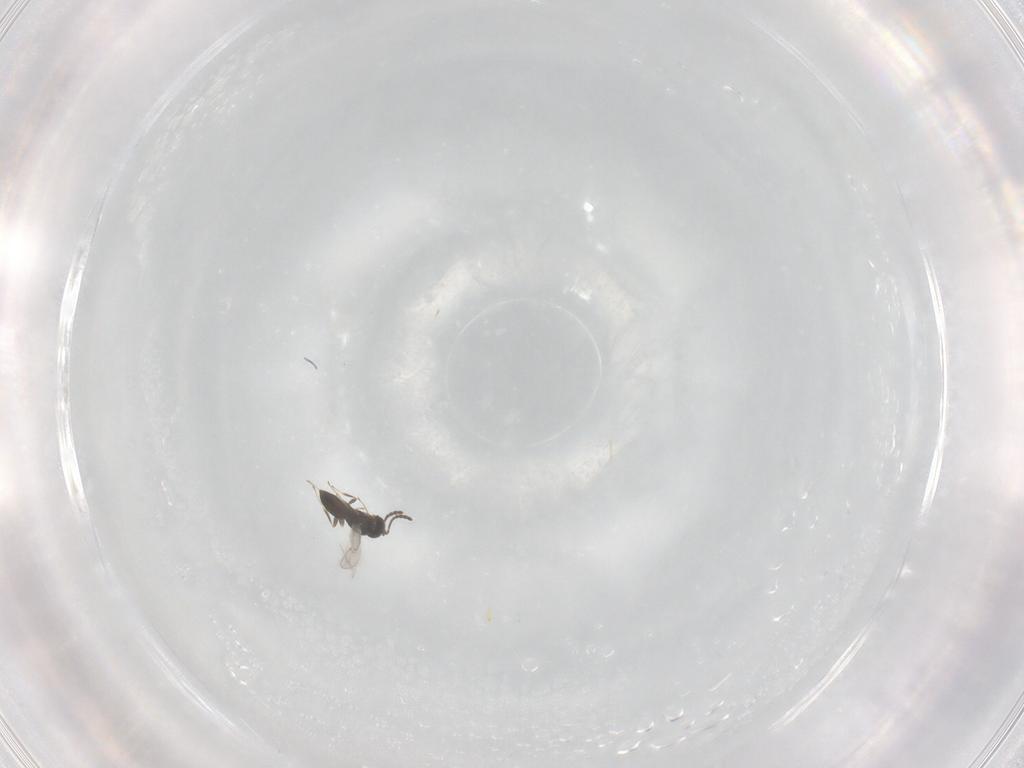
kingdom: Animalia
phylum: Arthropoda
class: Insecta
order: Hymenoptera
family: Scelionidae
